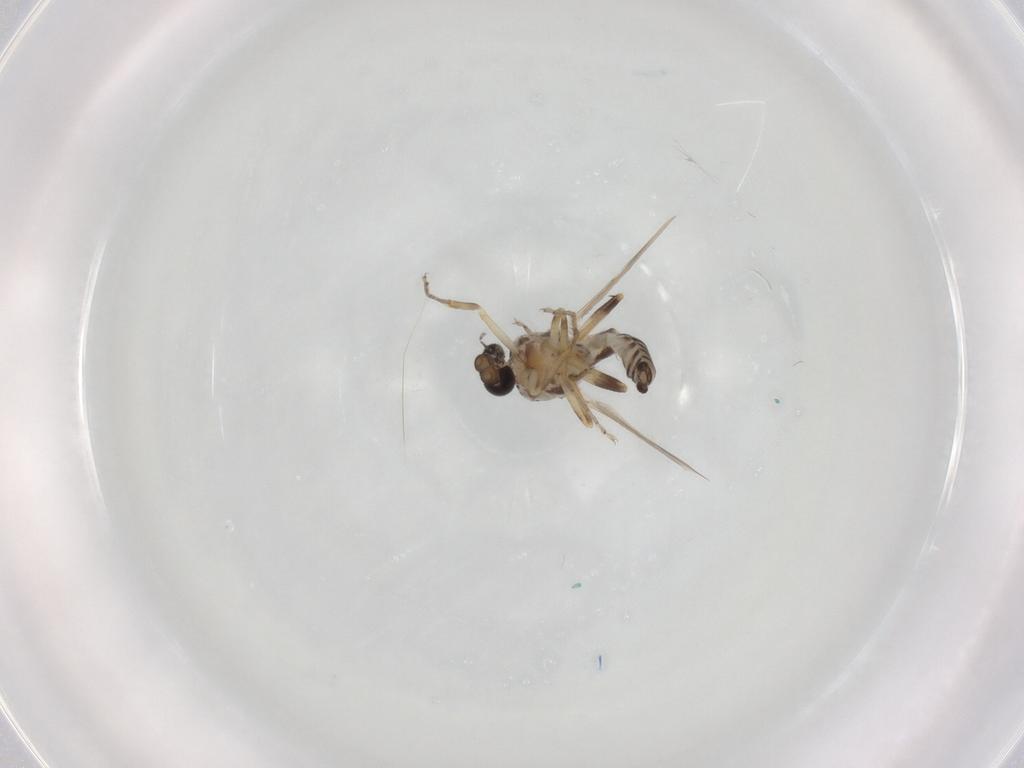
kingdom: Animalia
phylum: Arthropoda
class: Insecta
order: Diptera
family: Ceratopogonidae
